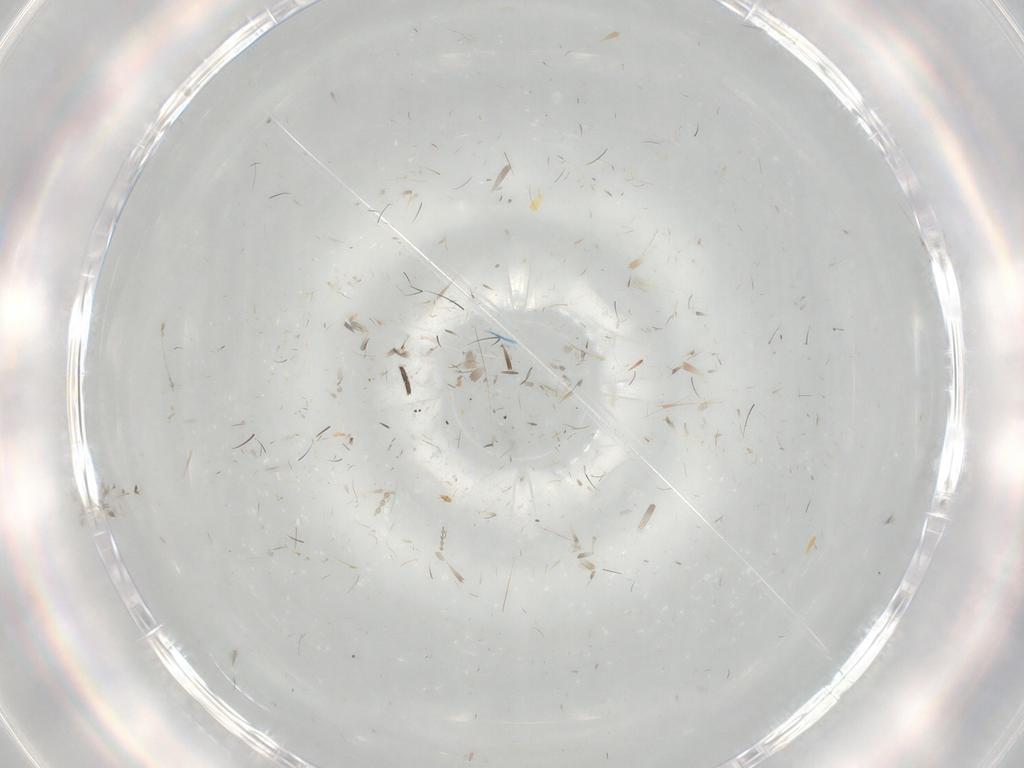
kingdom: Animalia
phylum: Arthropoda
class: Insecta
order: Diptera
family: Cecidomyiidae
